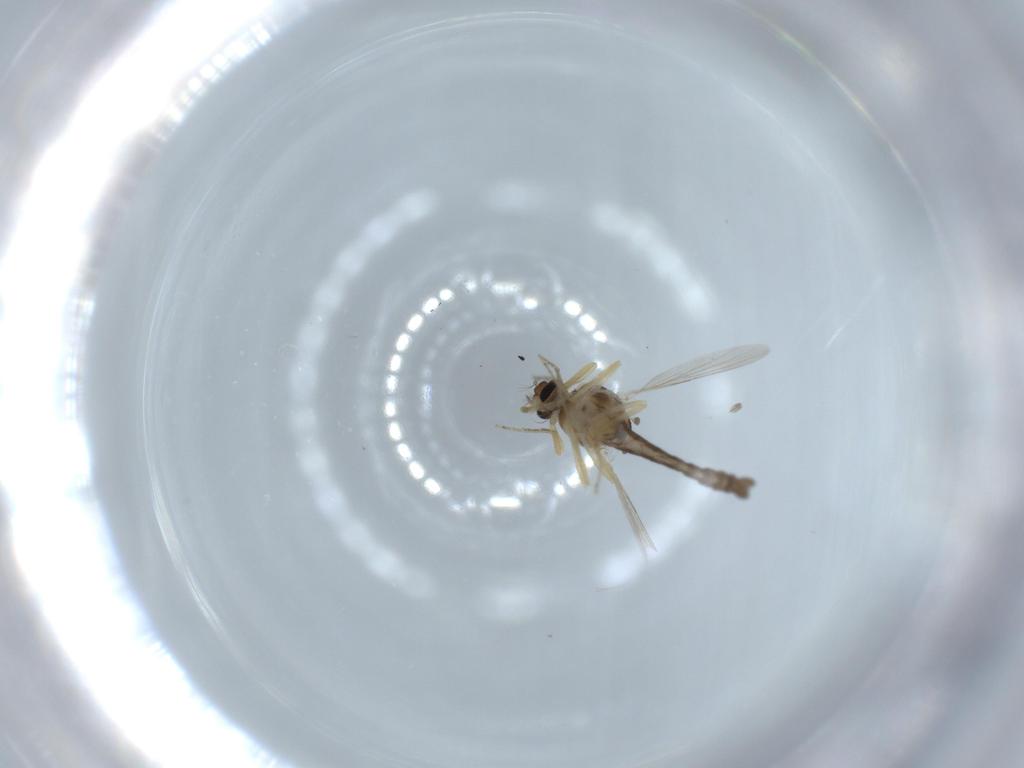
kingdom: Animalia
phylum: Arthropoda
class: Insecta
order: Diptera
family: Ceratopogonidae
